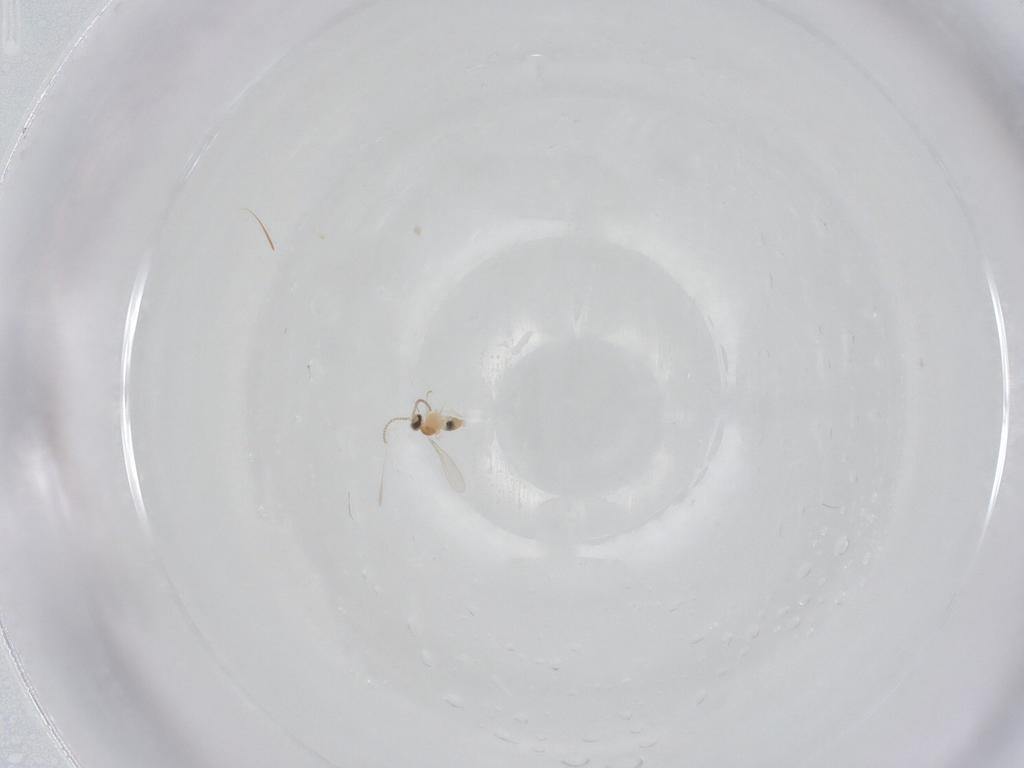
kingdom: Animalia
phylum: Arthropoda
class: Insecta
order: Diptera
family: Cecidomyiidae
